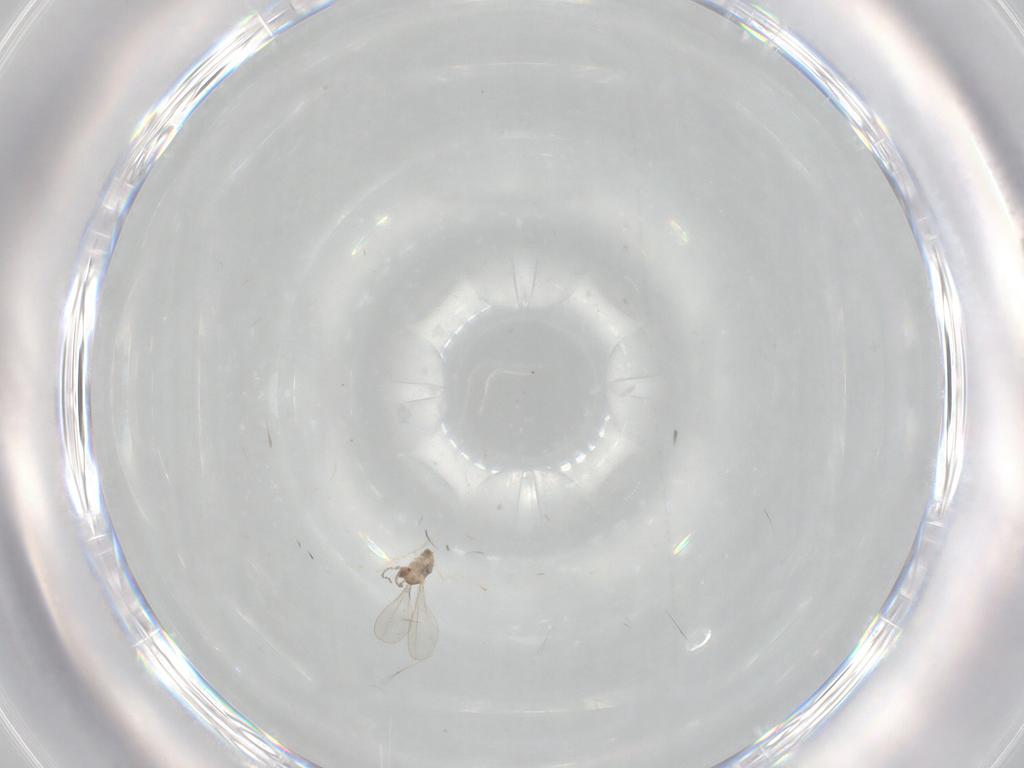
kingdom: Animalia
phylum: Arthropoda
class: Insecta
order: Diptera
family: Cecidomyiidae
